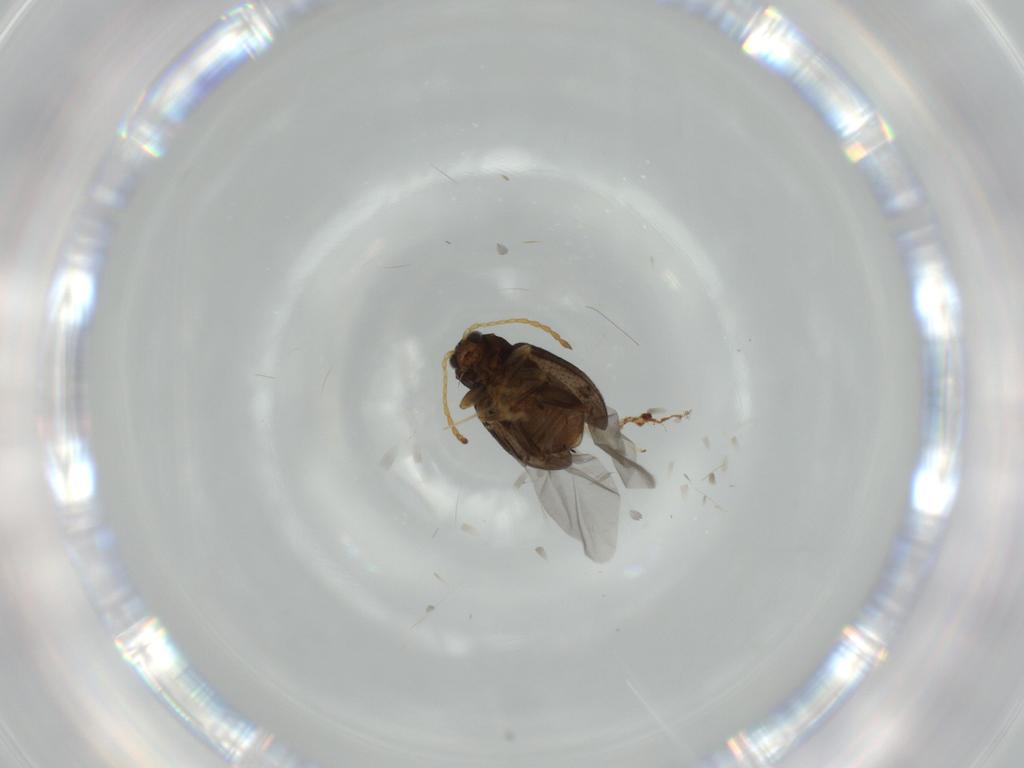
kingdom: Animalia
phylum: Arthropoda
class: Insecta
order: Coleoptera
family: Chrysomelidae
